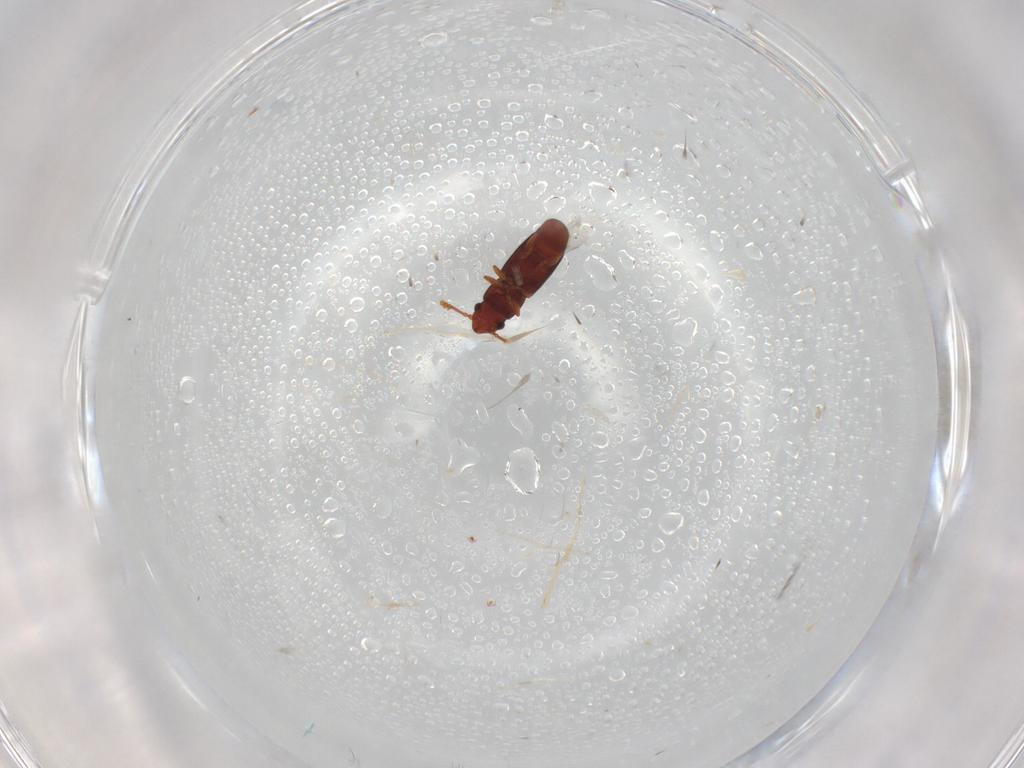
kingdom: Animalia
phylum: Arthropoda
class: Insecta
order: Coleoptera
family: Smicripidae
